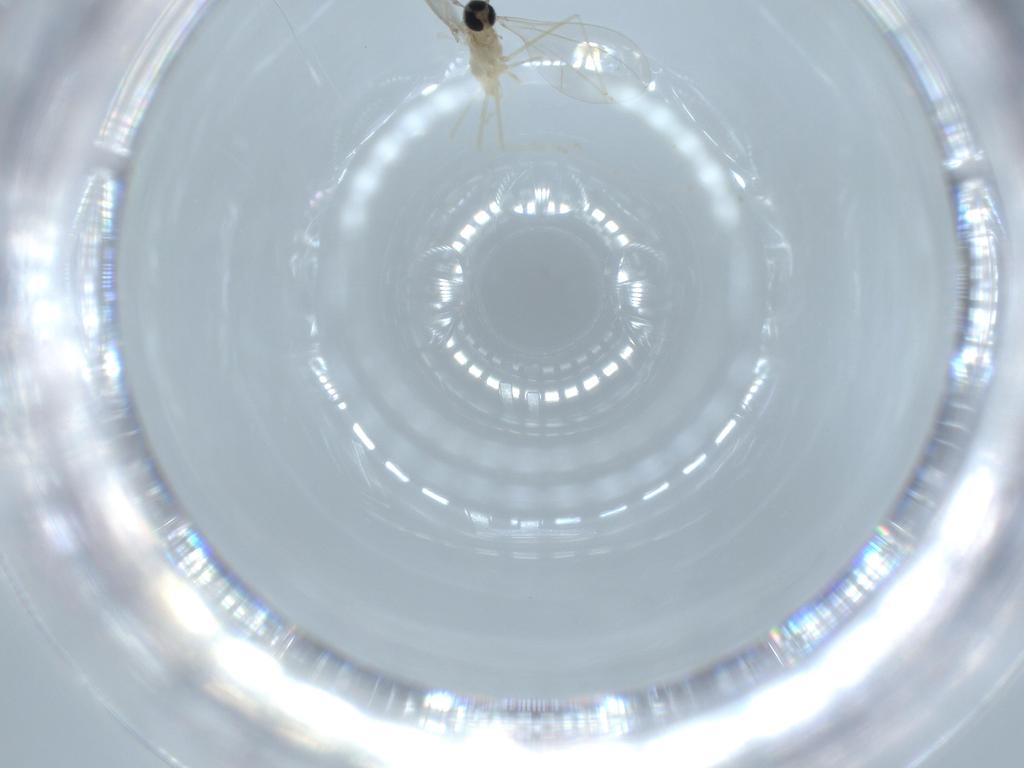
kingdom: Animalia
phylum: Arthropoda
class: Insecta
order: Diptera
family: Cecidomyiidae
